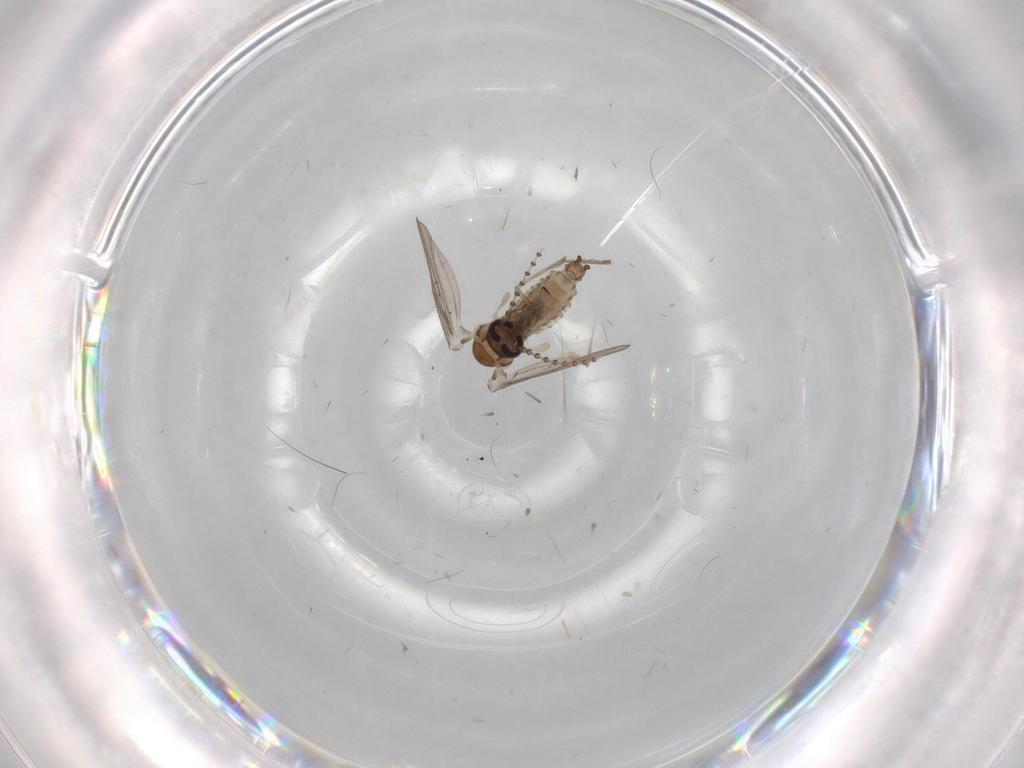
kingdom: Animalia
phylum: Arthropoda
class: Insecta
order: Diptera
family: Psychodidae
